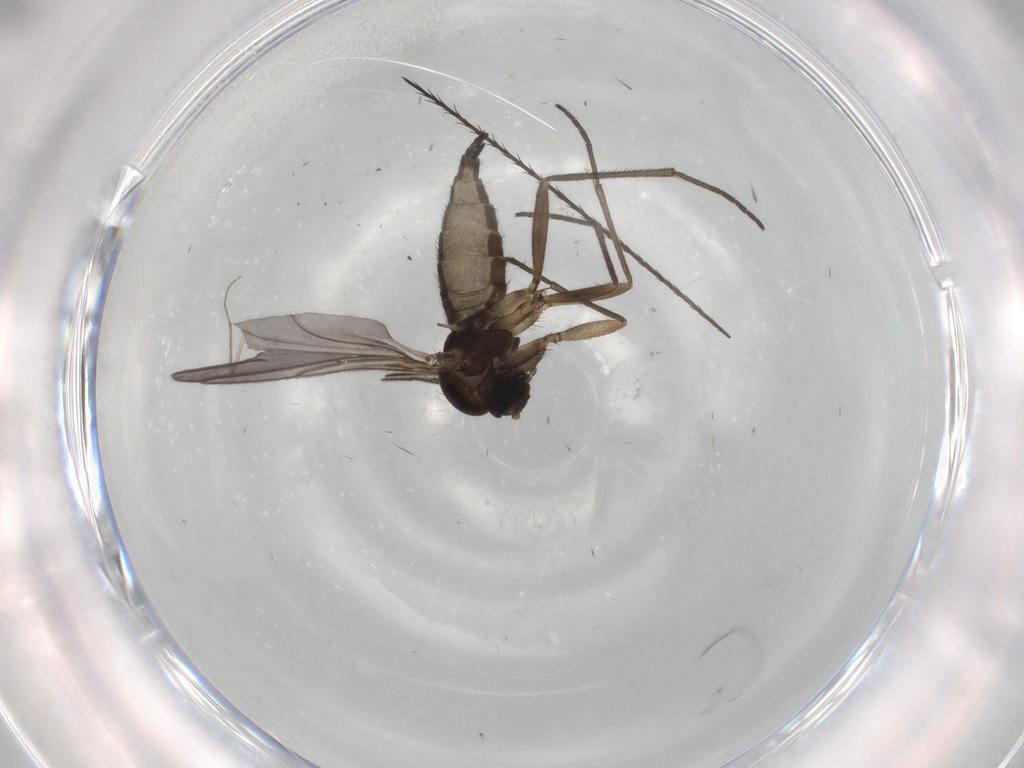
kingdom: Animalia
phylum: Arthropoda
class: Insecta
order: Diptera
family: Sciaridae
